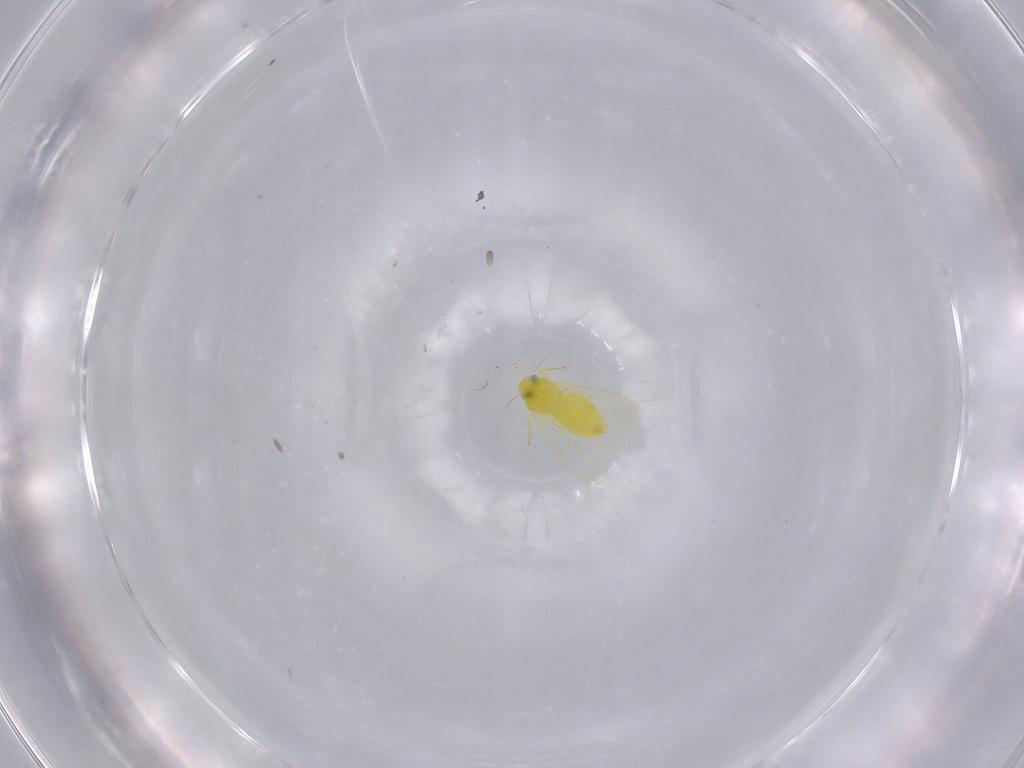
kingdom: Animalia
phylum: Arthropoda
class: Insecta
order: Hemiptera
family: Aleyrodidae
